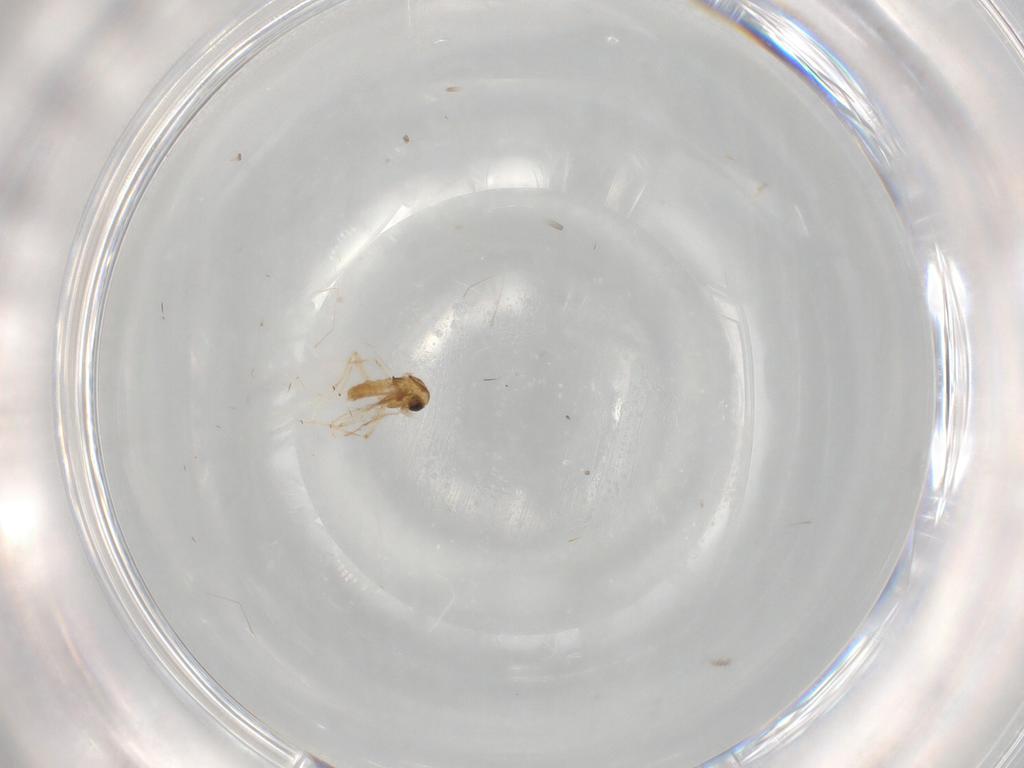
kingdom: Animalia
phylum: Arthropoda
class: Insecta
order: Diptera
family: Chironomidae
